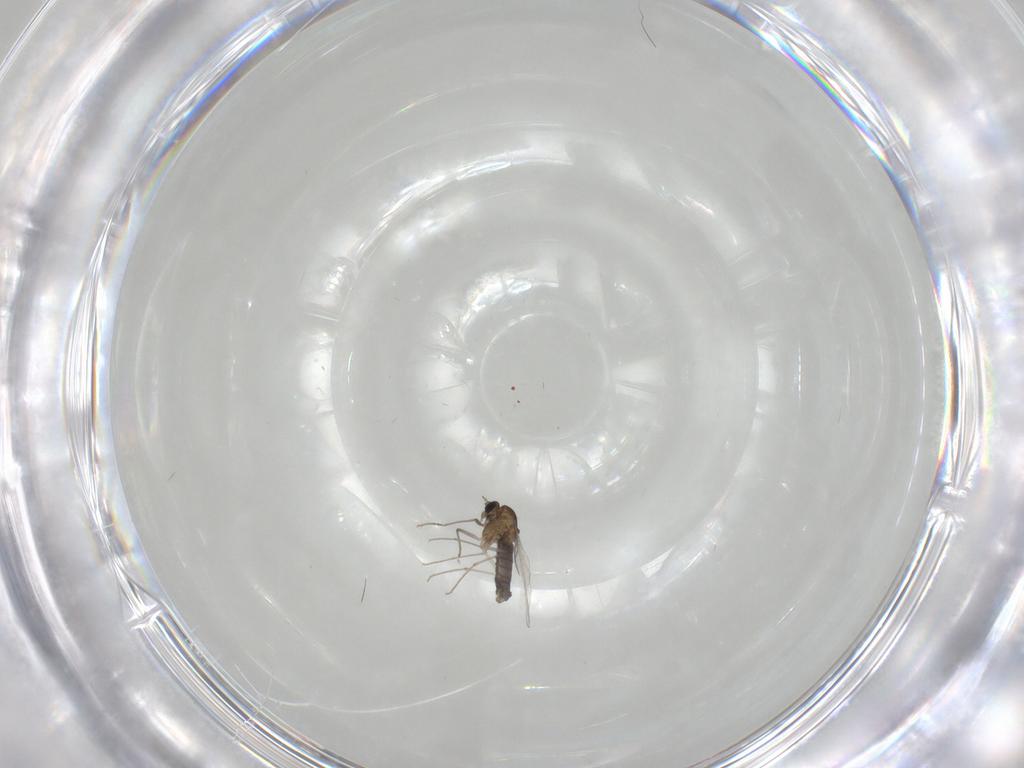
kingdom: Animalia
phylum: Arthropoda
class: Insecta
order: Diptera
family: Chironomidae
